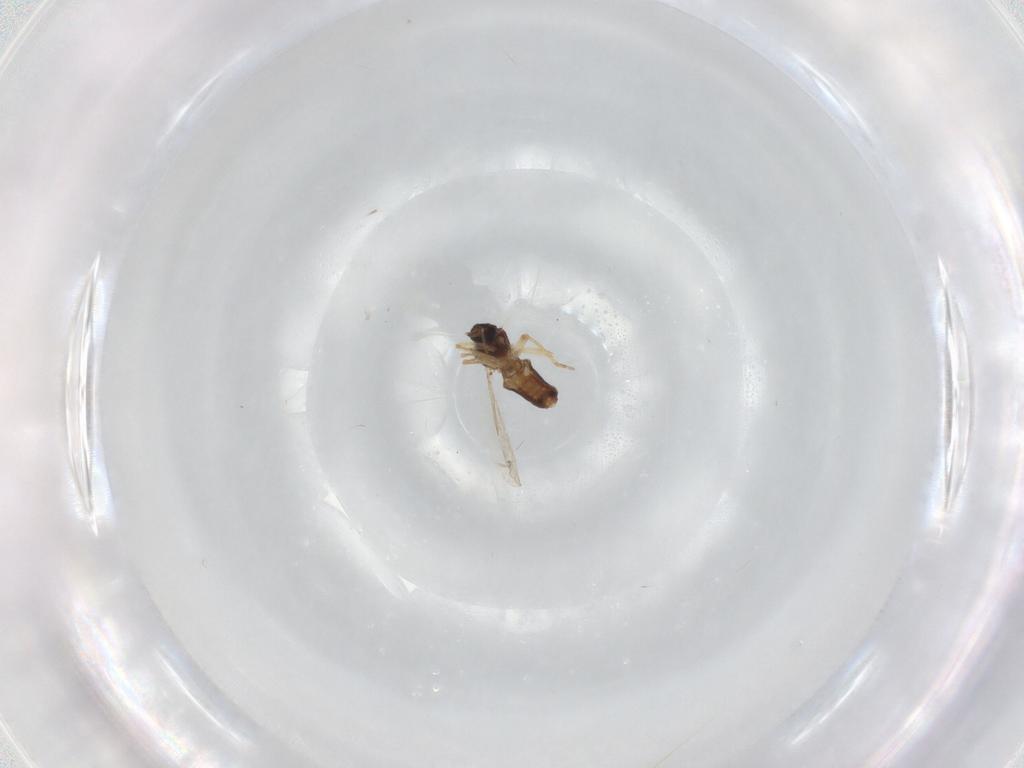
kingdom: Animalia
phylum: Arthropoda
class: Insecta
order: Diptera
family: Ceratopogonidae
